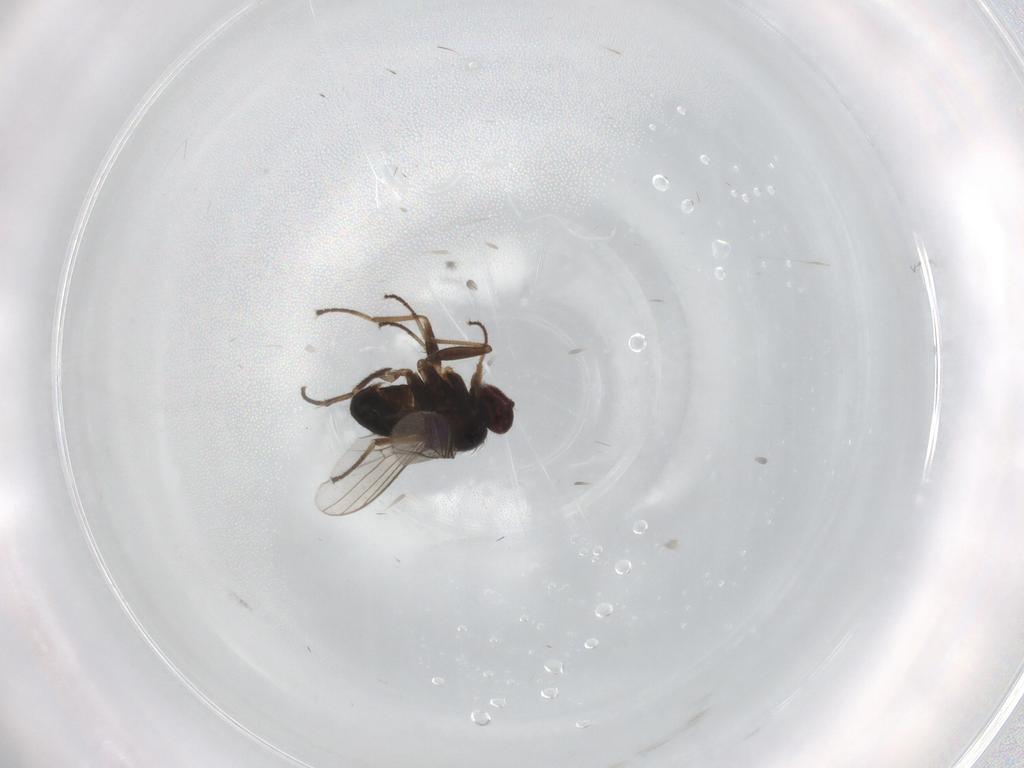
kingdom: Animalia
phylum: Arthropoda
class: Insecta
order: Diptera
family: Dolichopodidae
